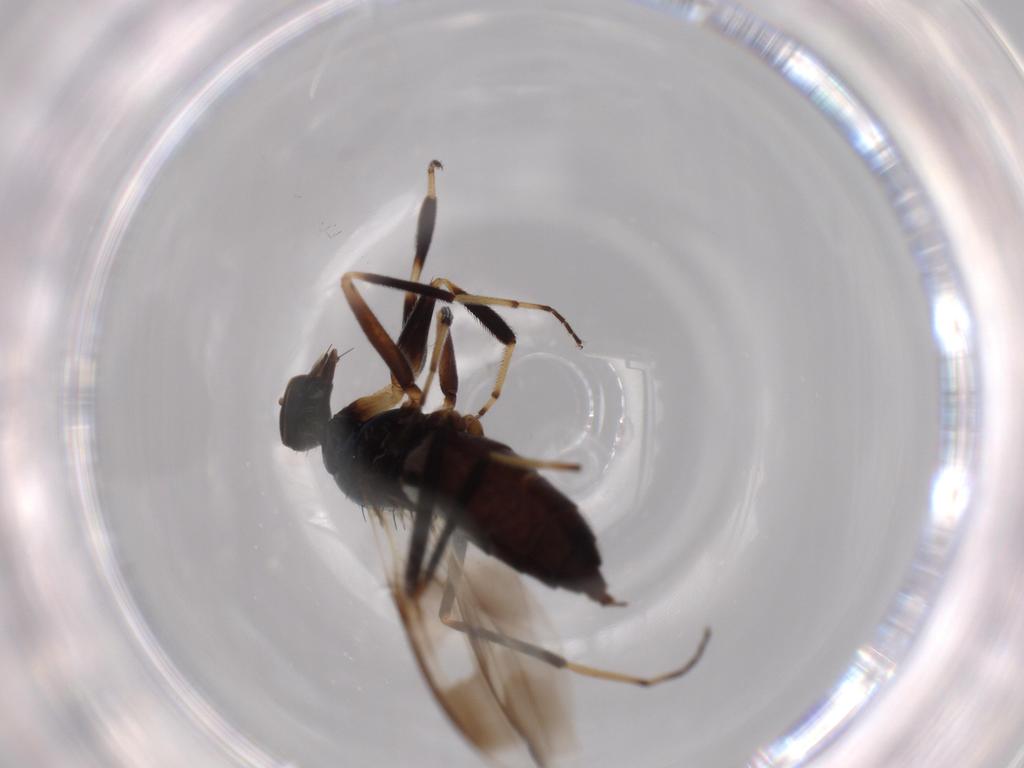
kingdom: Animalia
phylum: Arthropoda
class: Insecta
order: Diptera
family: Hybotidae
